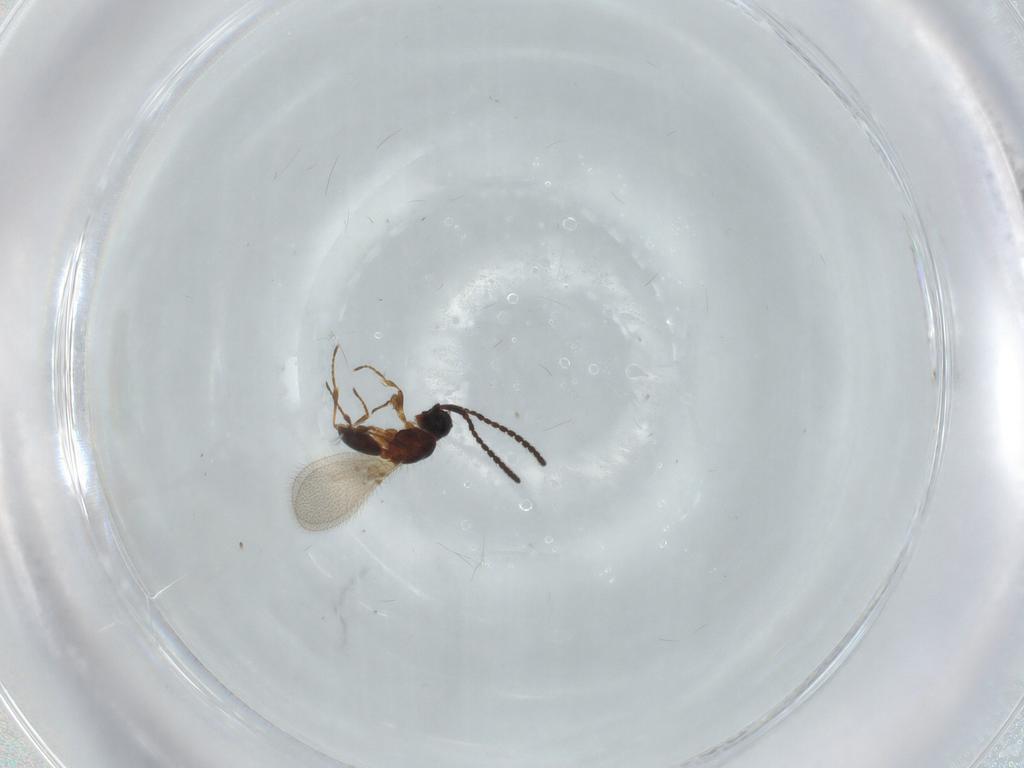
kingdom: Animalia
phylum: Arthropoda
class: Insecta
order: Hymenoptera
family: Diapriidae
